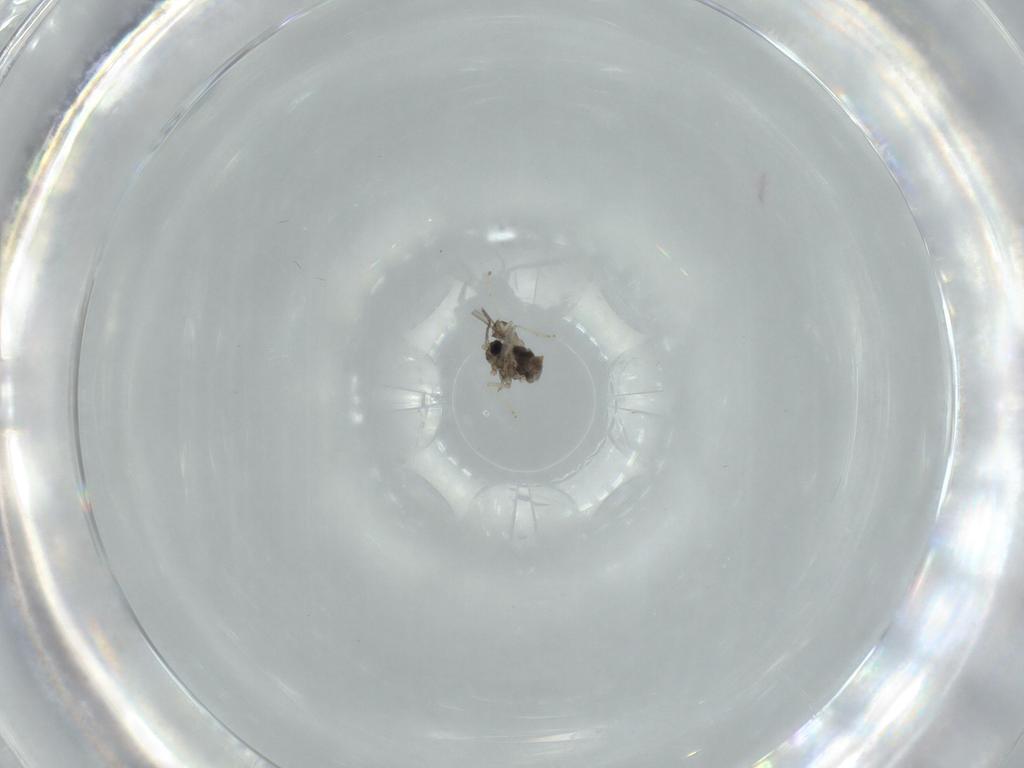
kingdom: Animalia
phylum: Arthropoda
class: Insecta
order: Diptera
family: Cecidomyiidae
